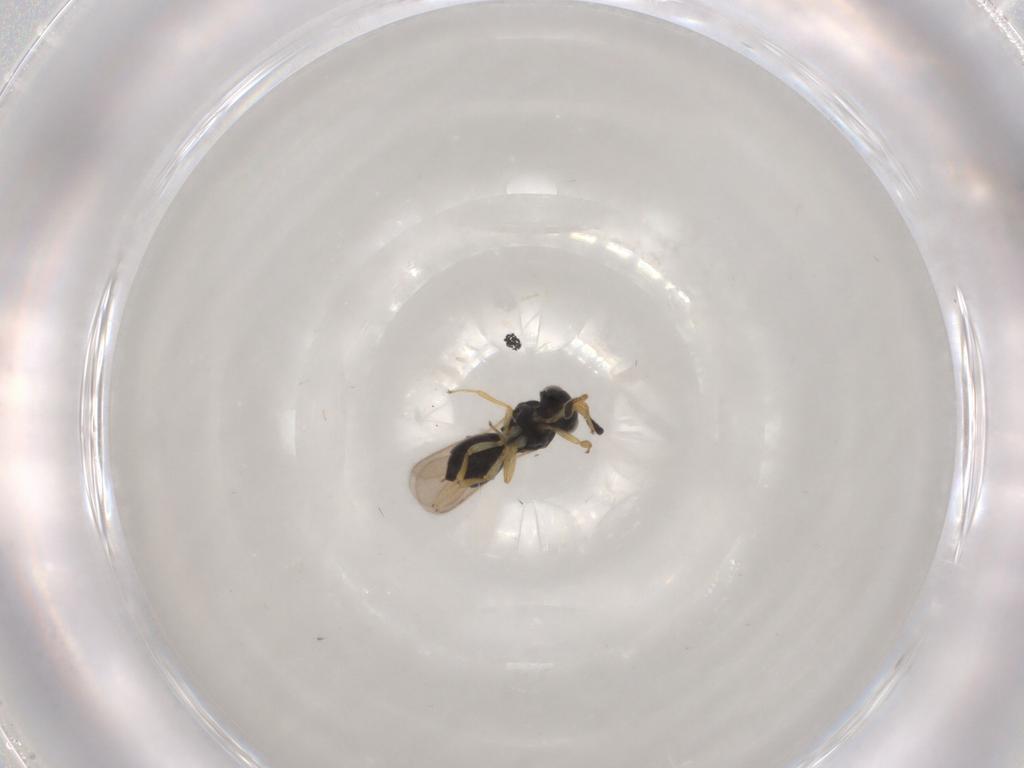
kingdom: Animalia
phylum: Arthropoda
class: Insecta
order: Hymenoptera
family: Scelionidae
